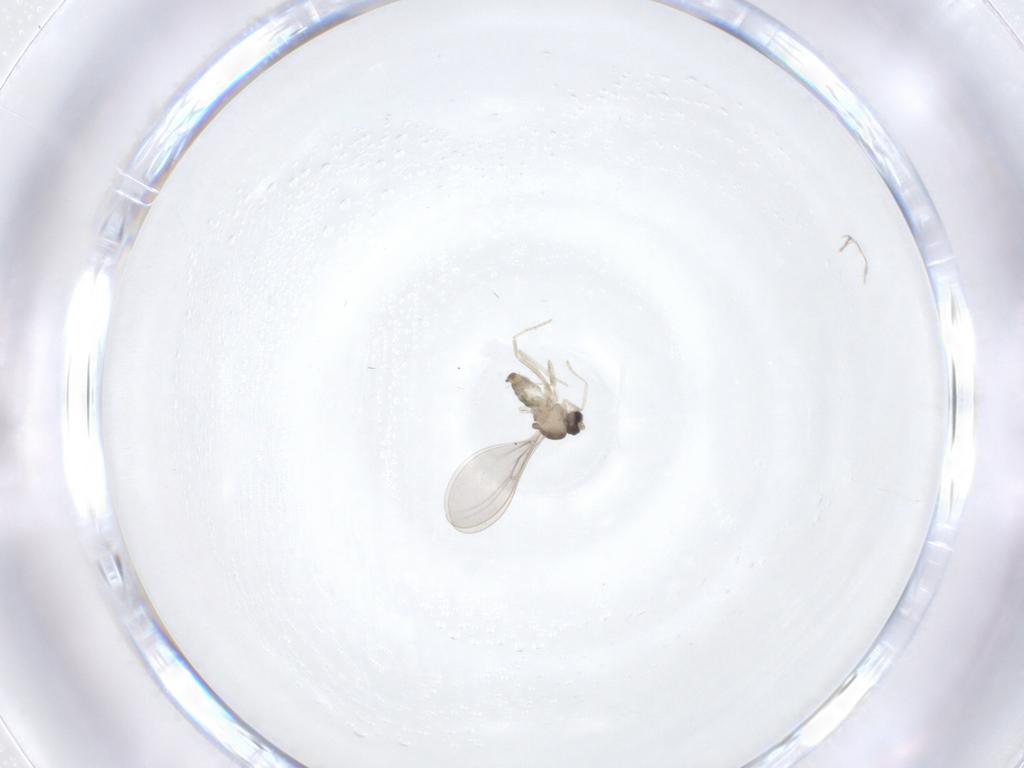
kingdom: Animalia
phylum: Arthropoda
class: Insecta
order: Diptera
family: Cecidomyiidae
